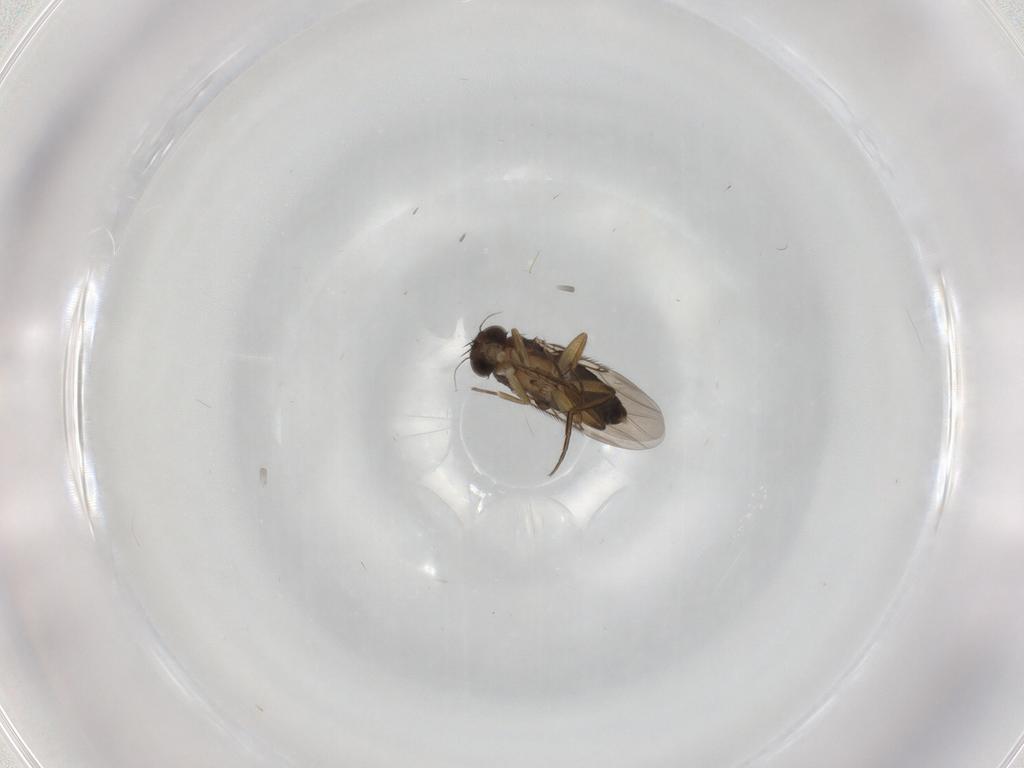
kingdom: Animalia
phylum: Arthropoda
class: Insecta
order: Diptera
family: Phoridae
